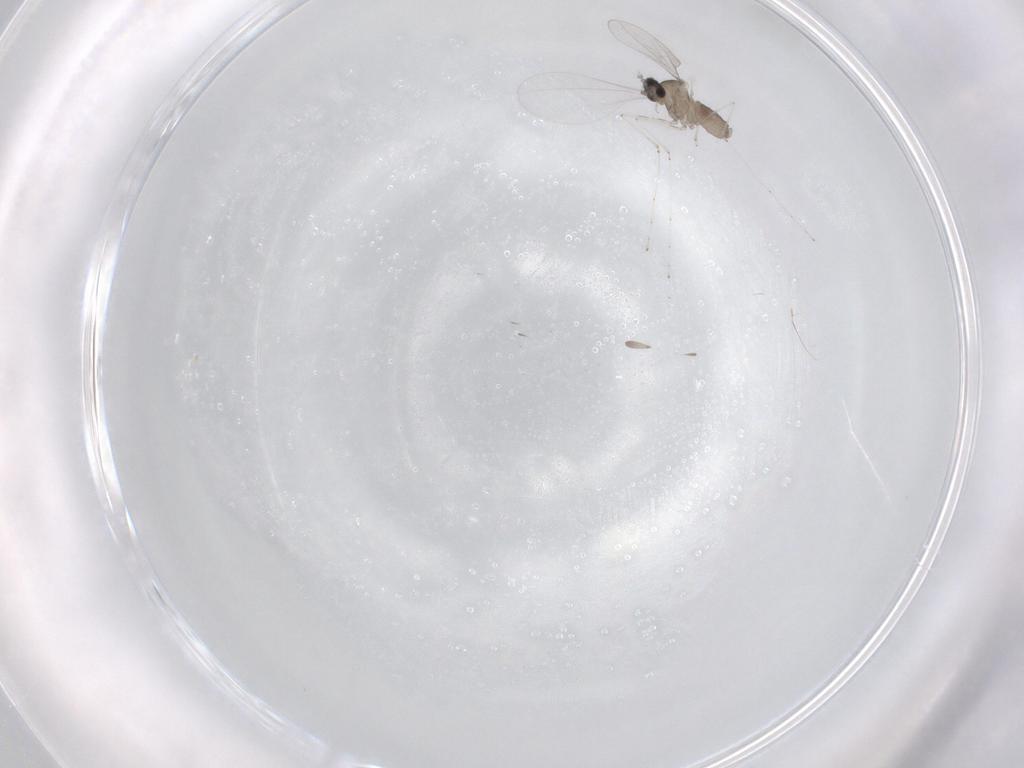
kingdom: Animalia
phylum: Arthropoda
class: Insecta
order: Diptera
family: Cecidomyiidae
